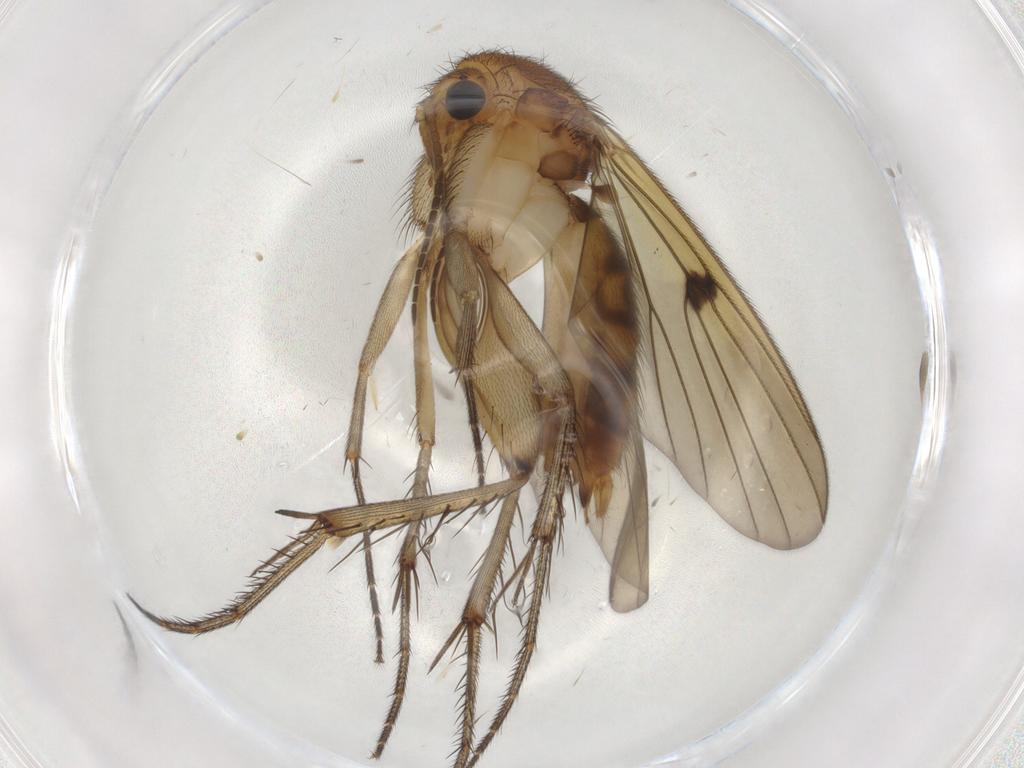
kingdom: Animalia
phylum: Arthropoda
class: Insecta
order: Diptera
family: Mycetophilidae
